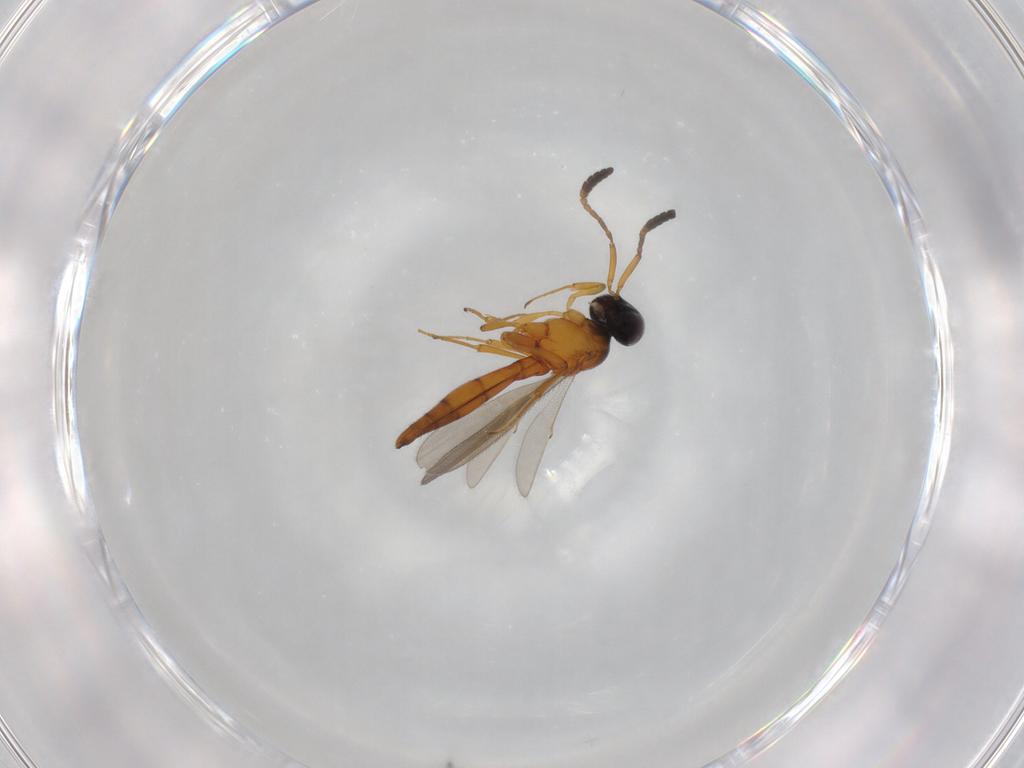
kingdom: Animalia
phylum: Arthropoda
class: Insecta
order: Hymenoptera
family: Scelionidae
